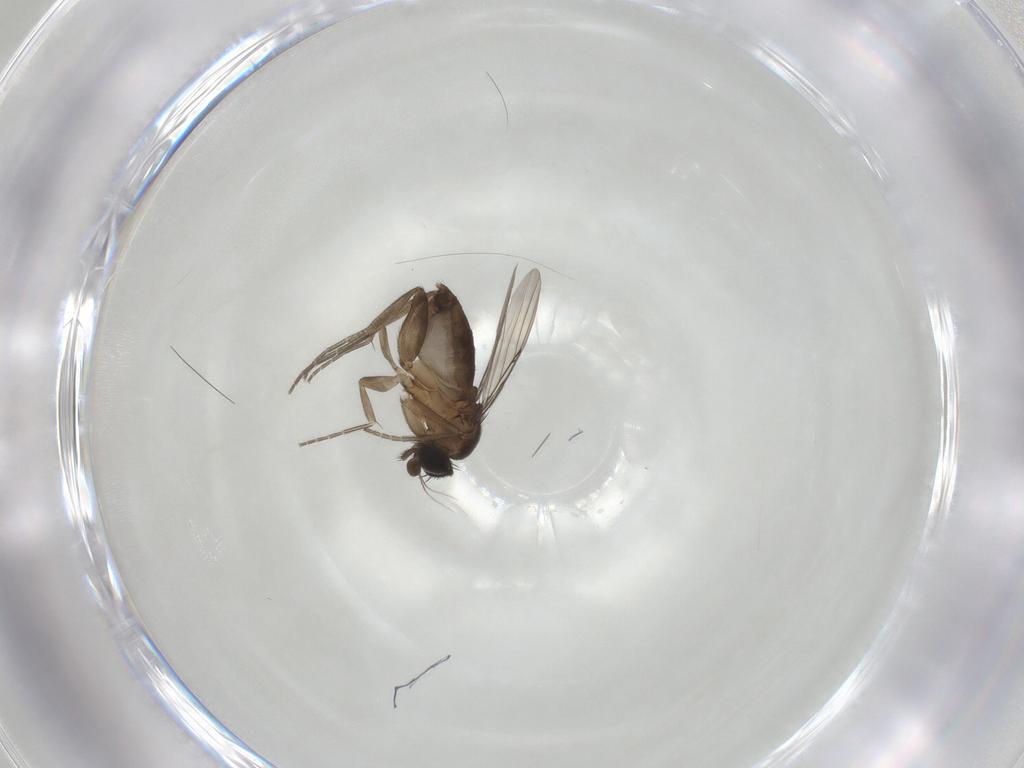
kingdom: Animalia
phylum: Arthropoda
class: Insecta
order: Diptera
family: Phoridae
